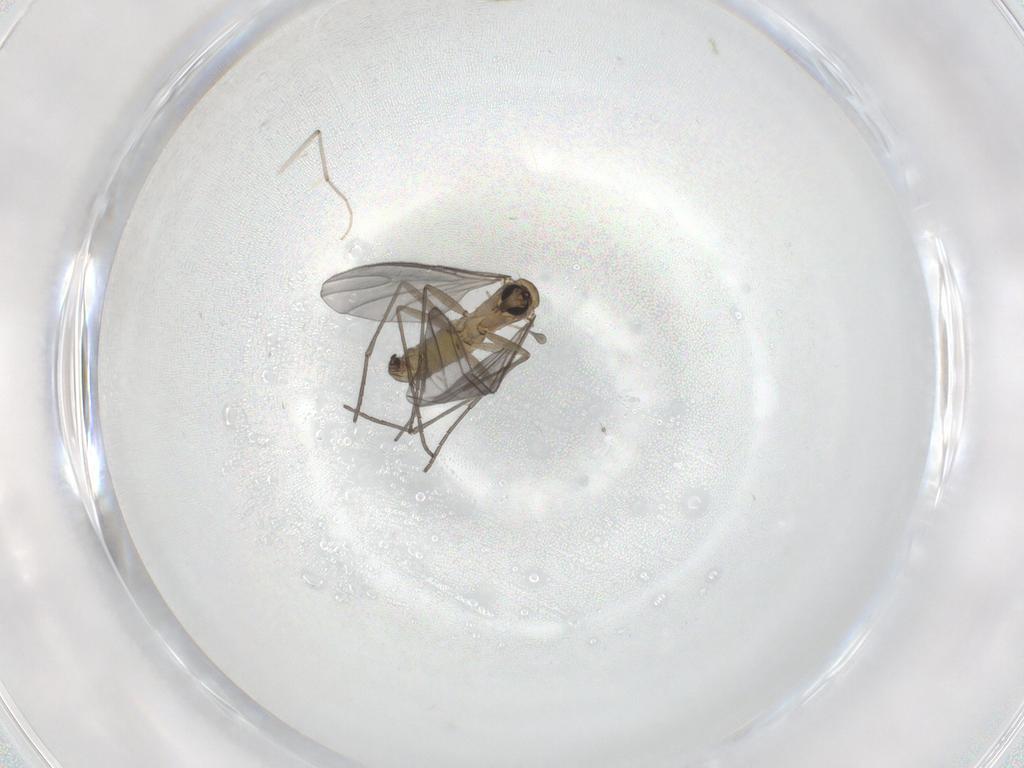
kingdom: Animalia
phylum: Arthropoda
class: Insecta
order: Diptera
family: Sciaridae
